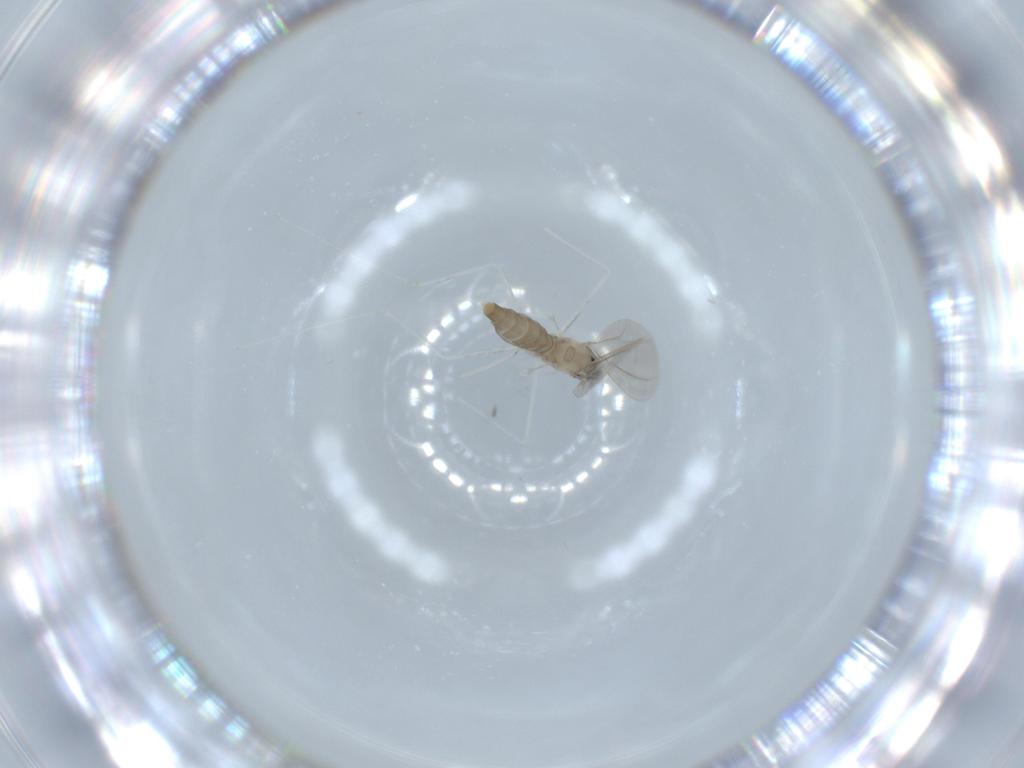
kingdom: Animalia
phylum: Arthropoda
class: Insecta
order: Diptera
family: Cecidomyiidae
